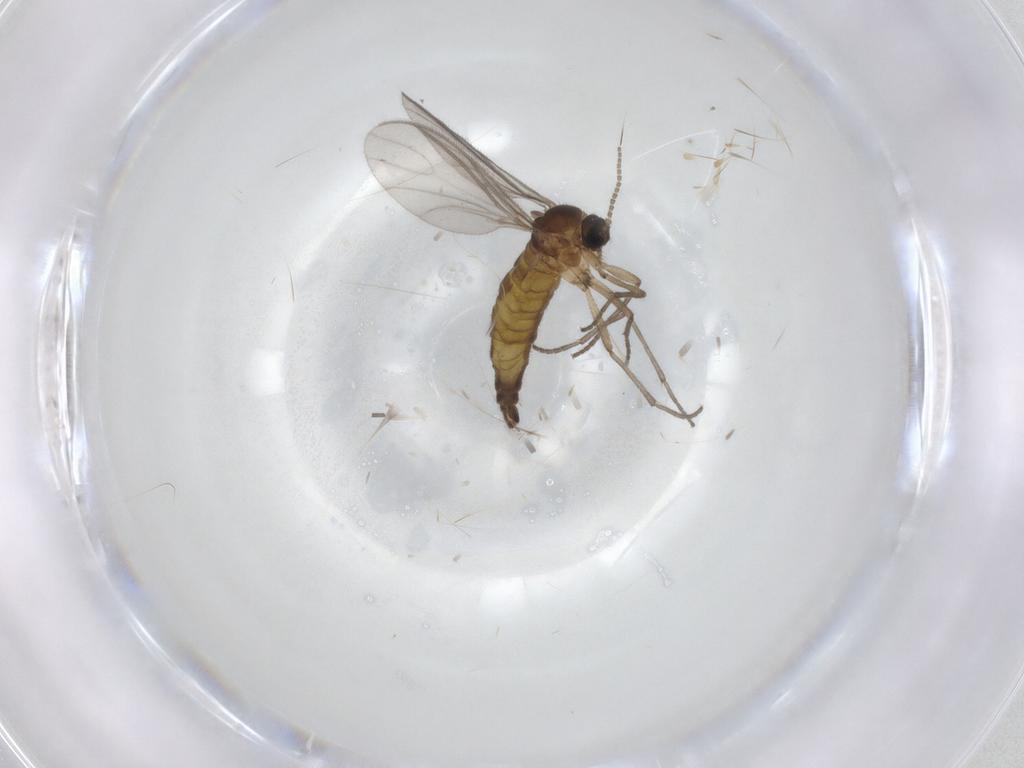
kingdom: Animalia
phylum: Arthropoda
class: Insecta
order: Diptera
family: Sciaridae
